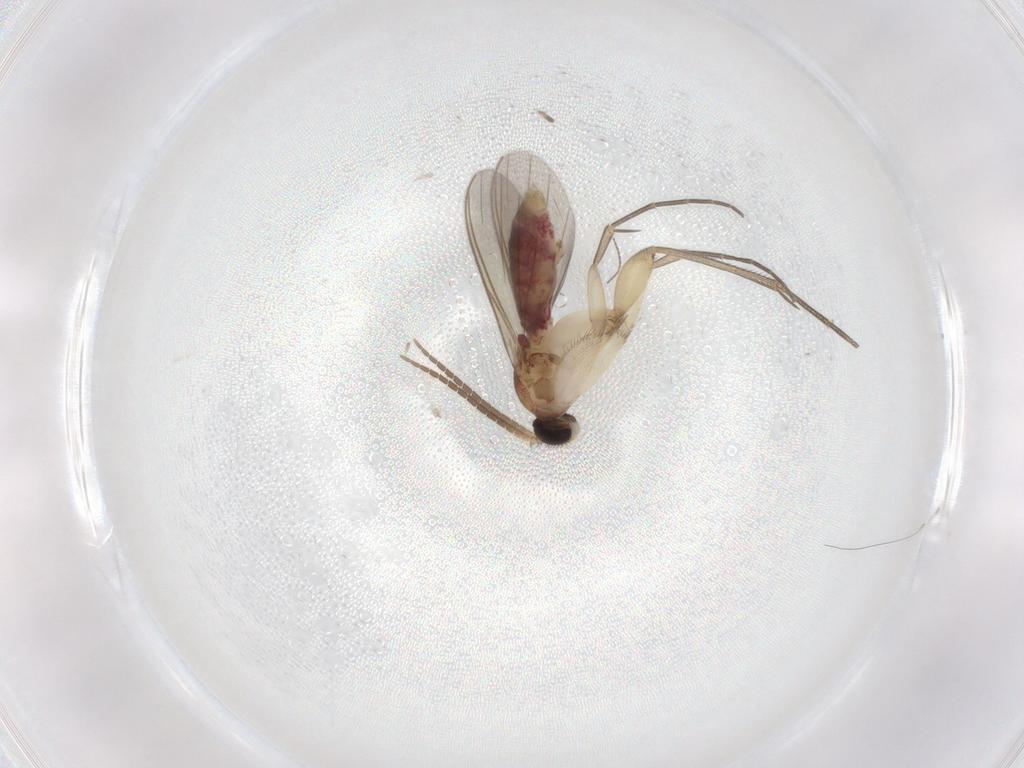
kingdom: Animalia
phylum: Arthropoda
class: Insecta
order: Diptera
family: Mycetophilidae
